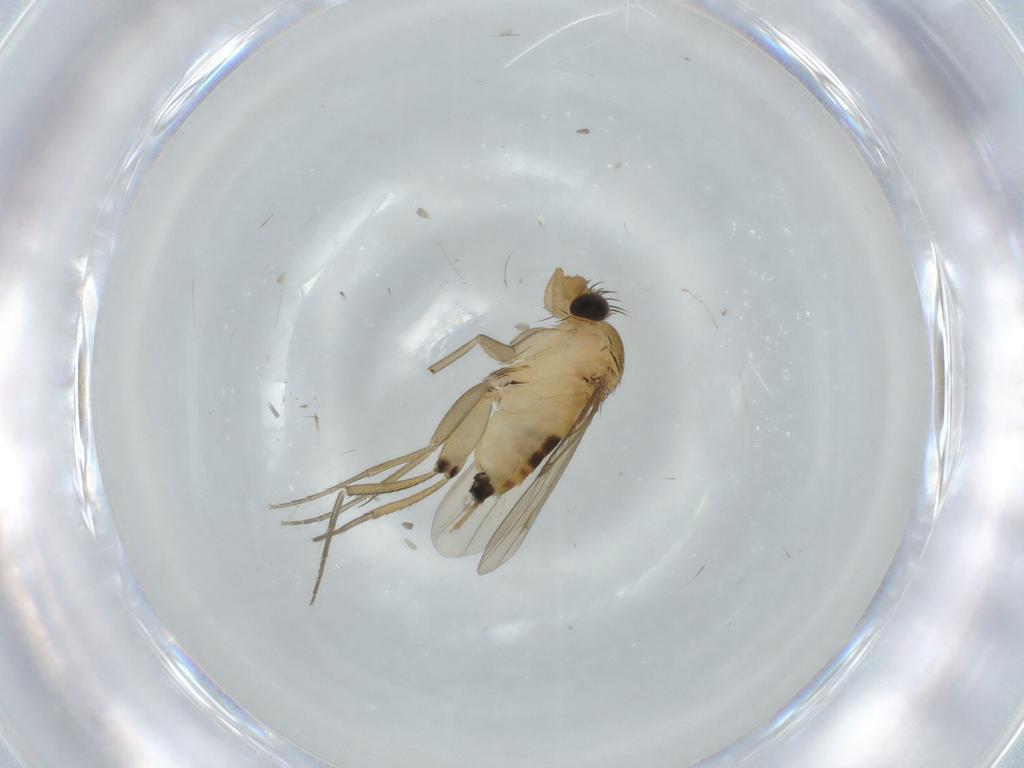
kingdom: Animalia
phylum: Arthropoda
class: Insecta
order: Diptera
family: Phoridae
